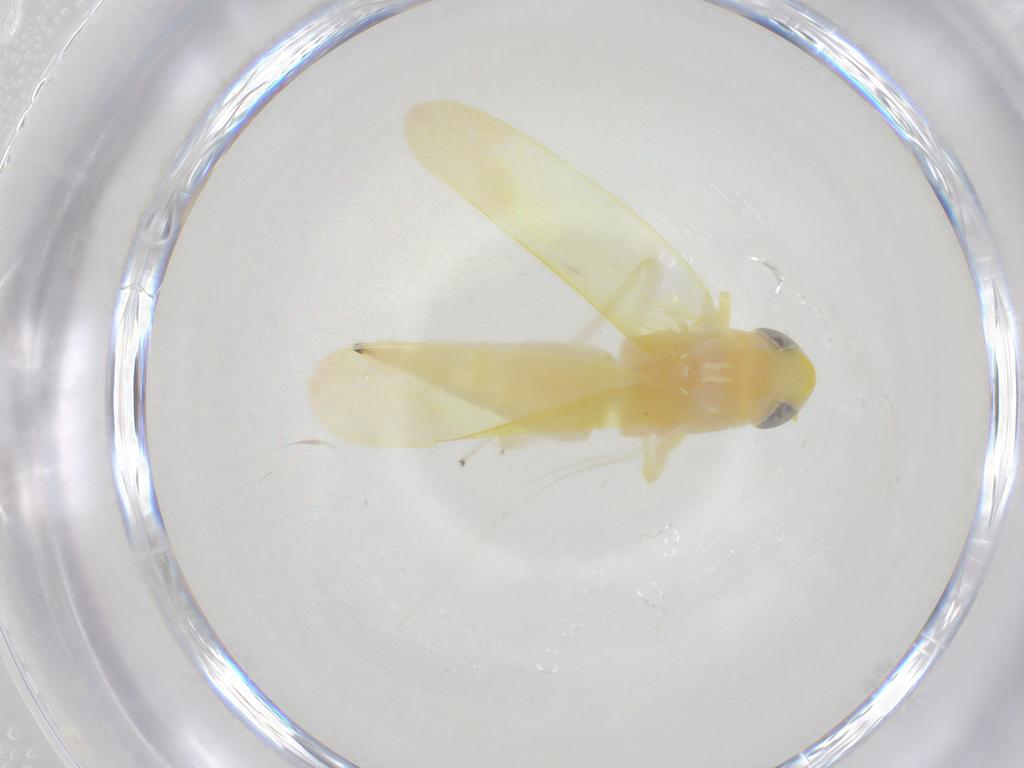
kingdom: Animalia
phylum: Arthropoda
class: Insecta
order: Hemiptera
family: Cicadellidae
